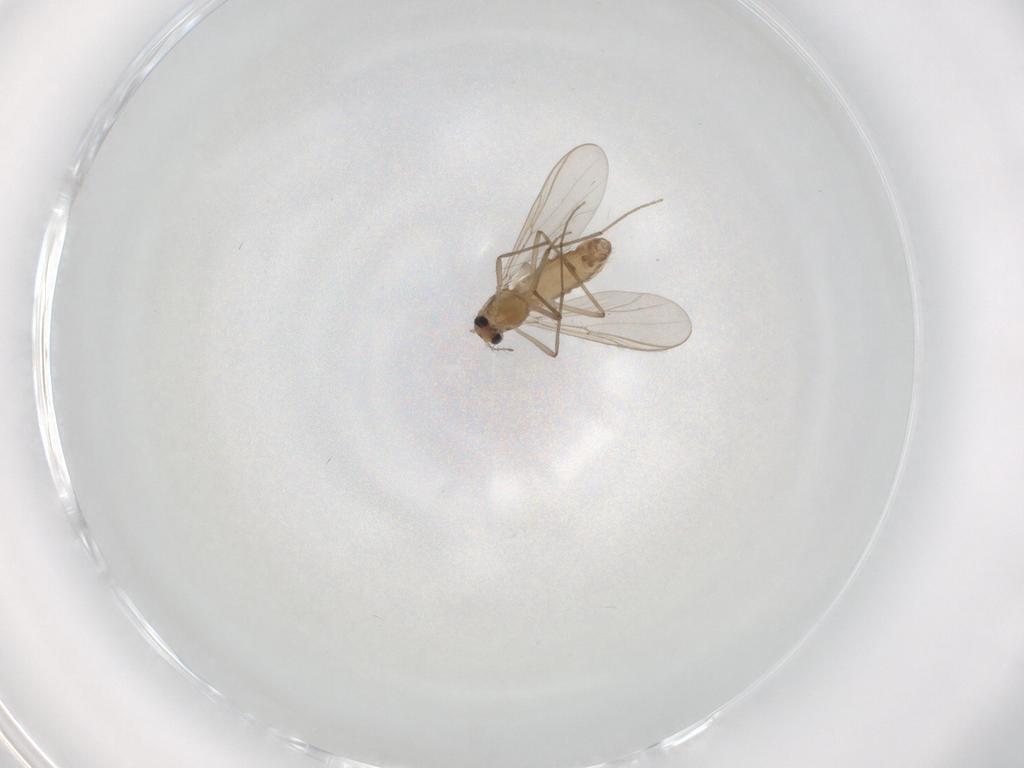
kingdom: Animalia
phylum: Arthropoda
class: Insecta
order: Diptera
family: Chironomidae
